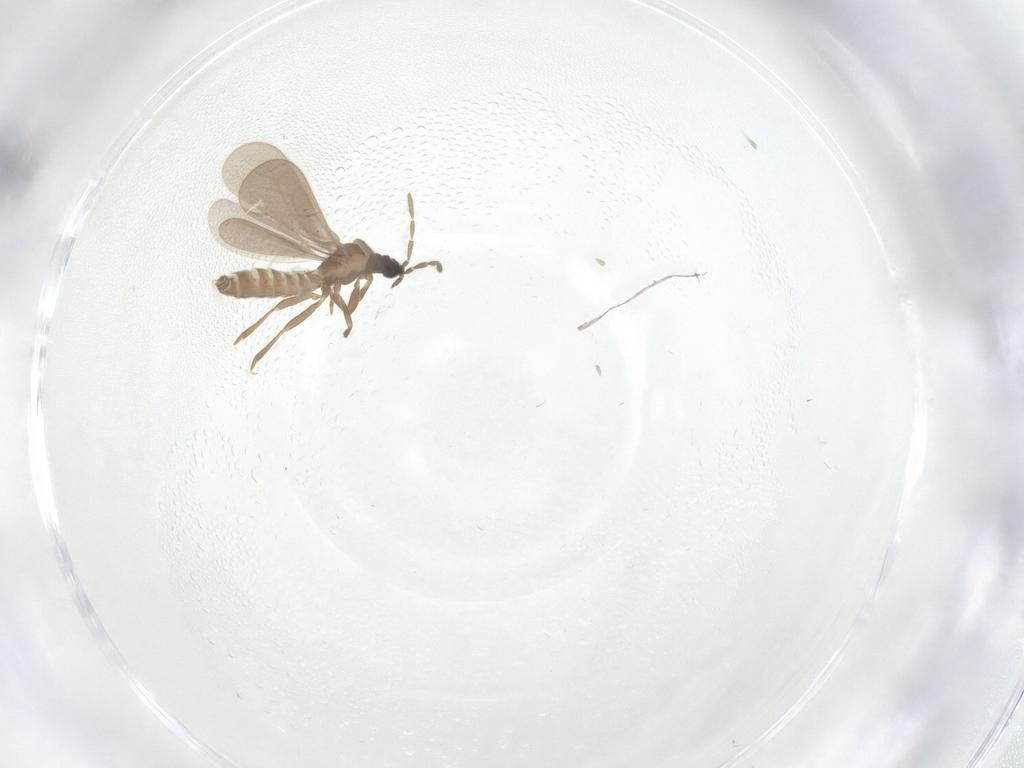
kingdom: Animalia
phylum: Arthropoda
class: Insecta
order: Hemiptera
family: Enicocephalidae
